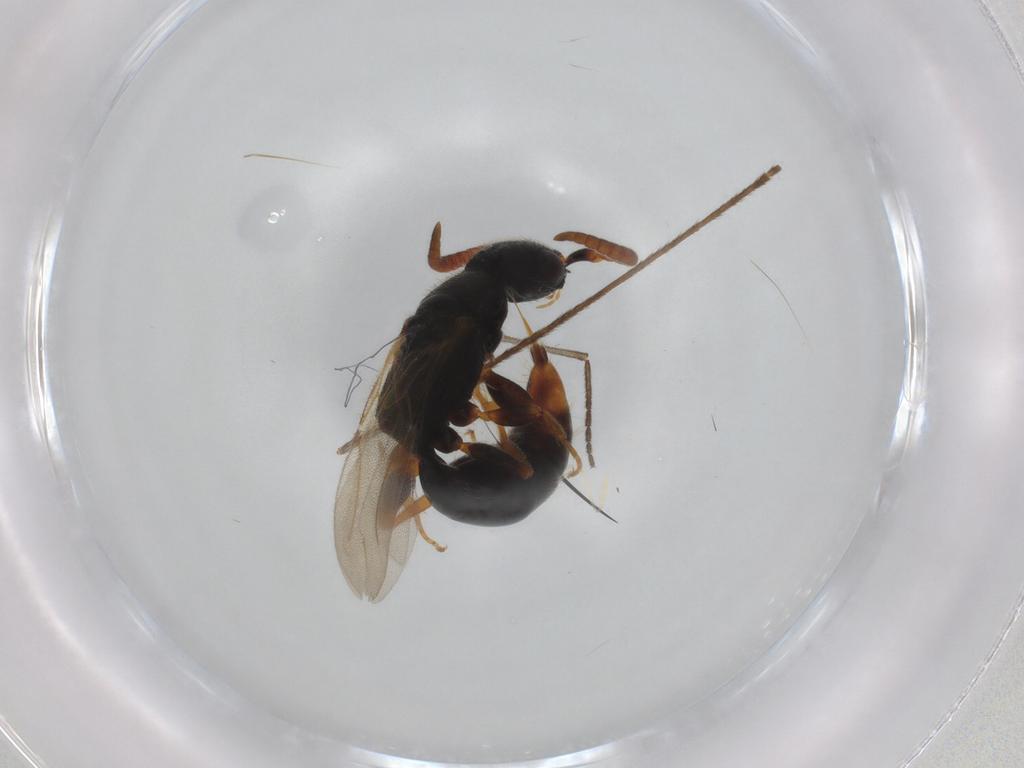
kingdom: Animalia
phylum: Arthropoda
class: Insecta
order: Hymenoptera
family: Bethylidae
